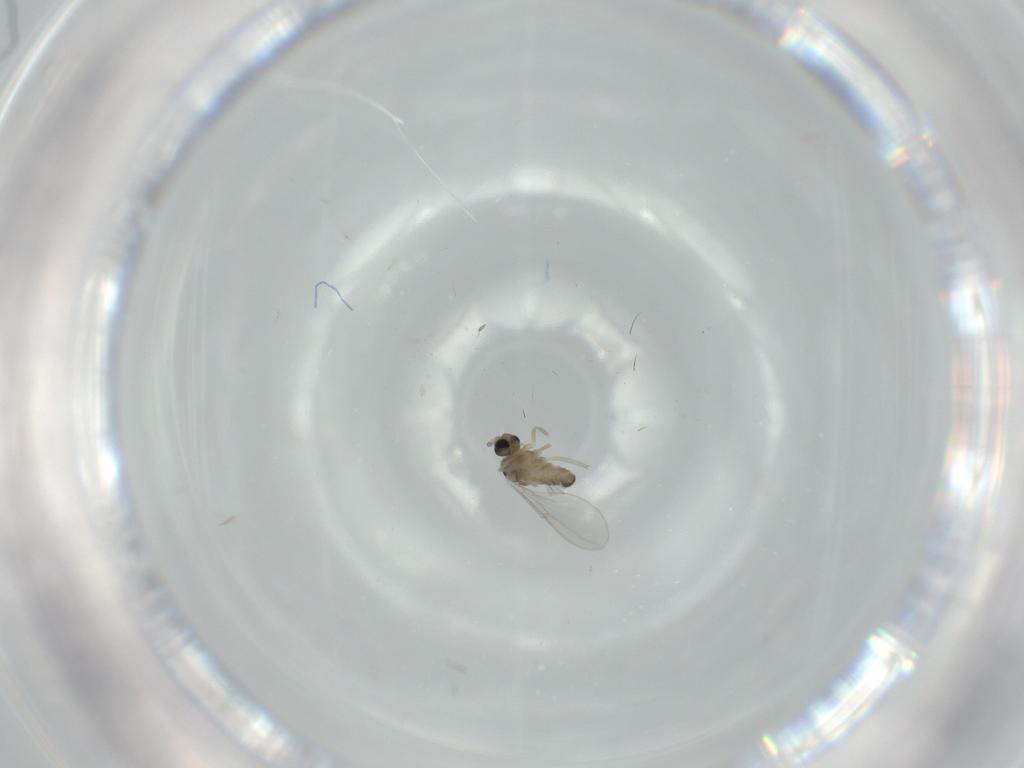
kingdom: Animalia
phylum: Arthropoda
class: Insecta
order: Diptera
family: Cecidomyiidae
